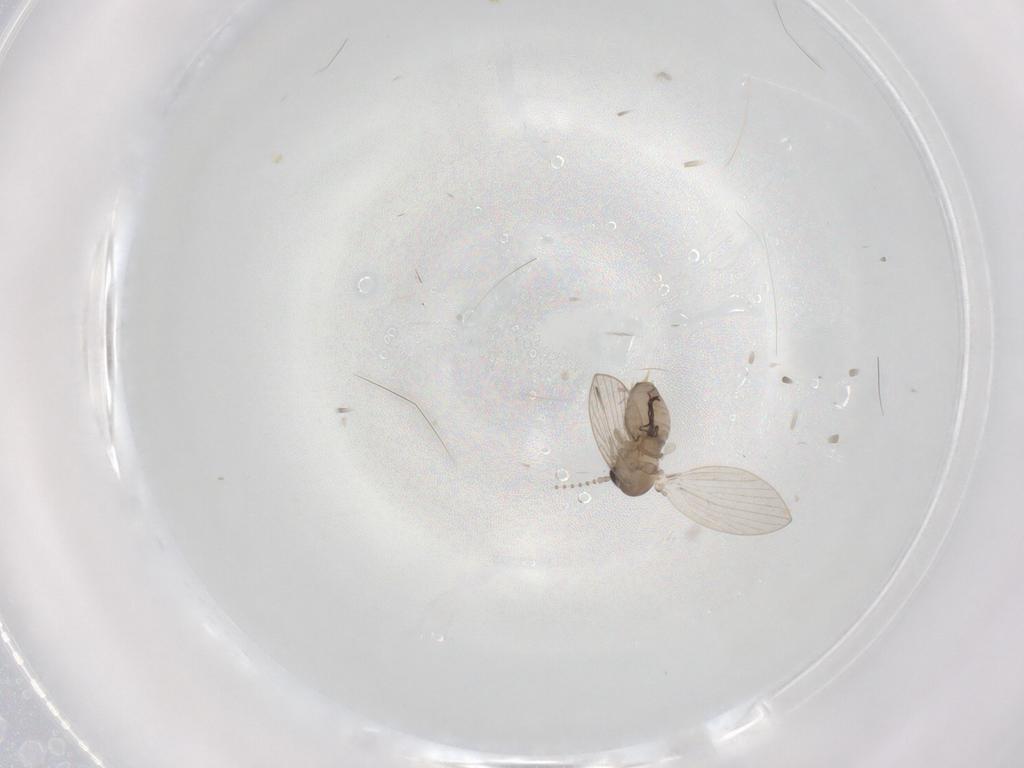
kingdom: Animalia
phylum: Arthropoda
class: Insecta
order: Diptera
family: Psychodidae
